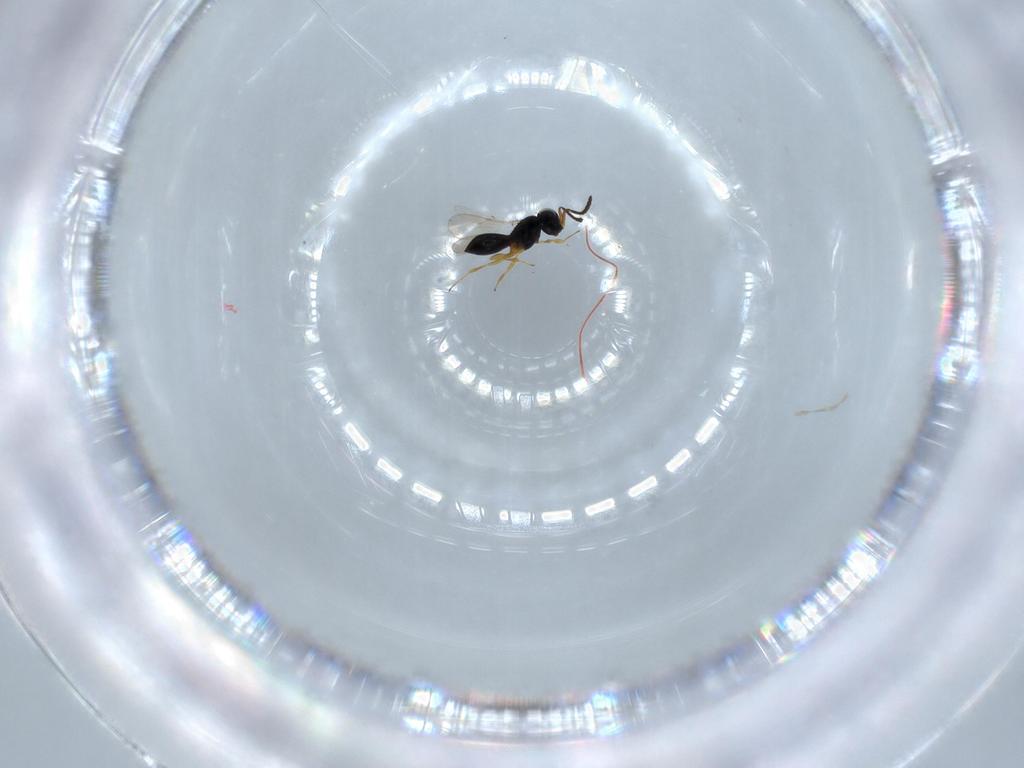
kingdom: Animalia
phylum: Arthropoda
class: Insecta
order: Hymenoptera
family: Scelionidae
